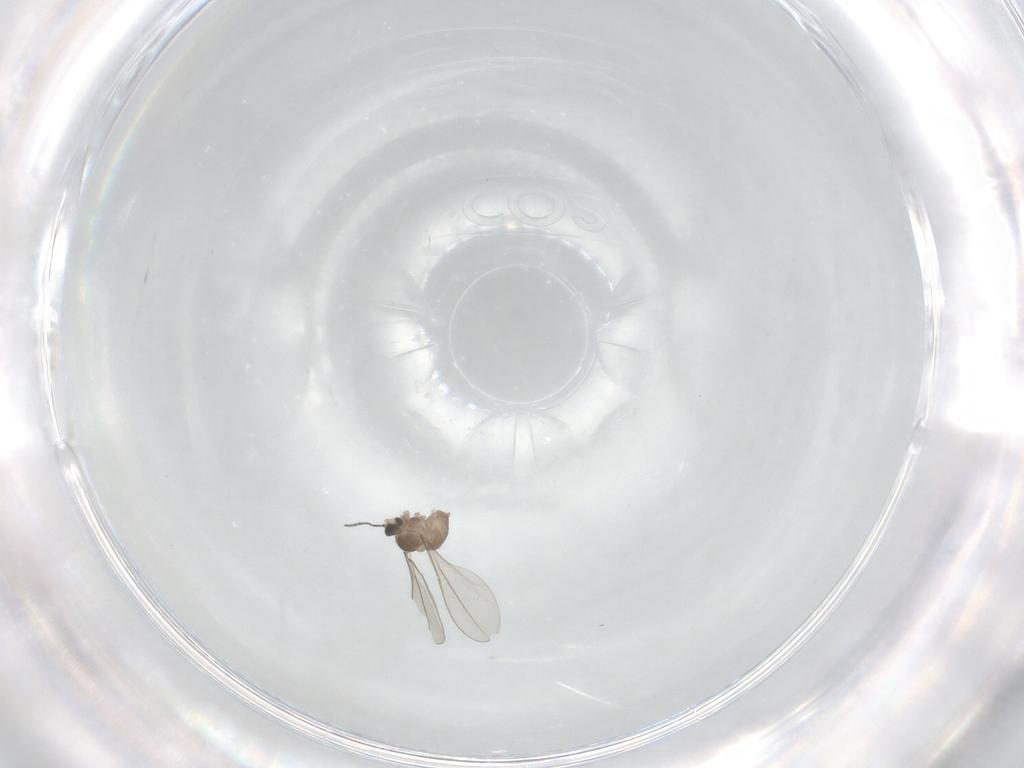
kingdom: Animalia
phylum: Arthropoda
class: Insecta
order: Diptera
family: Cecidomyiidae
